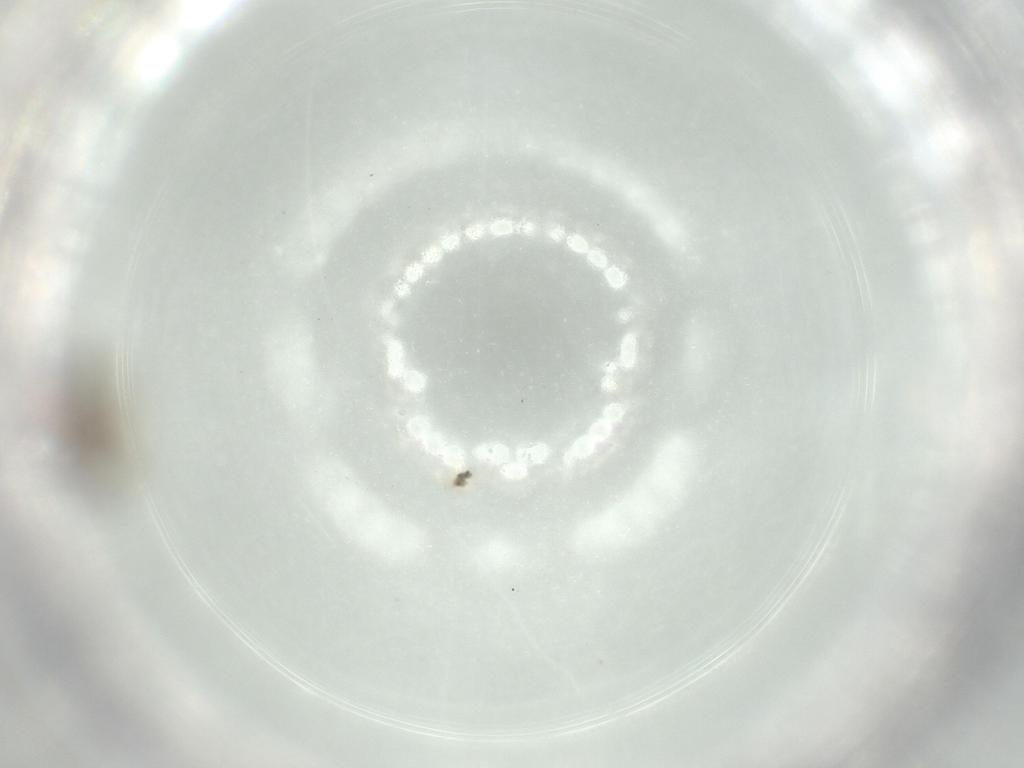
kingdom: Animalia
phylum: Arthropoda
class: Insecta
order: Diptera
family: Phoridae
